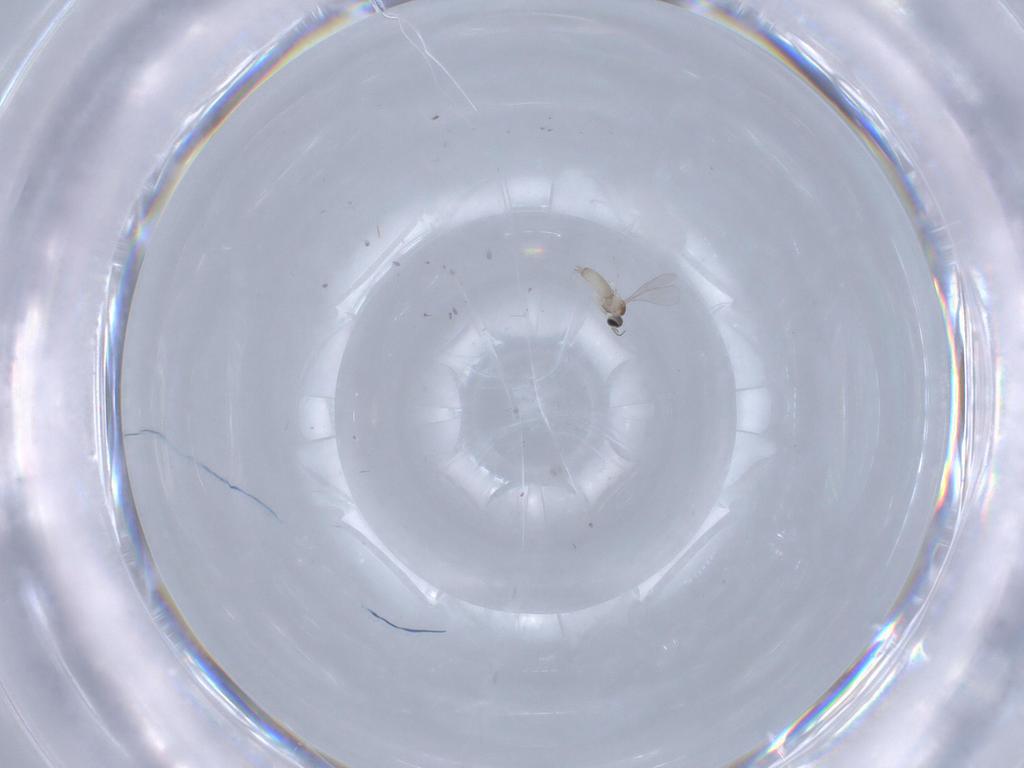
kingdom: Animalia
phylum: Arthropoda
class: Insecta
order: Diptera
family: Cecidomyiidae
